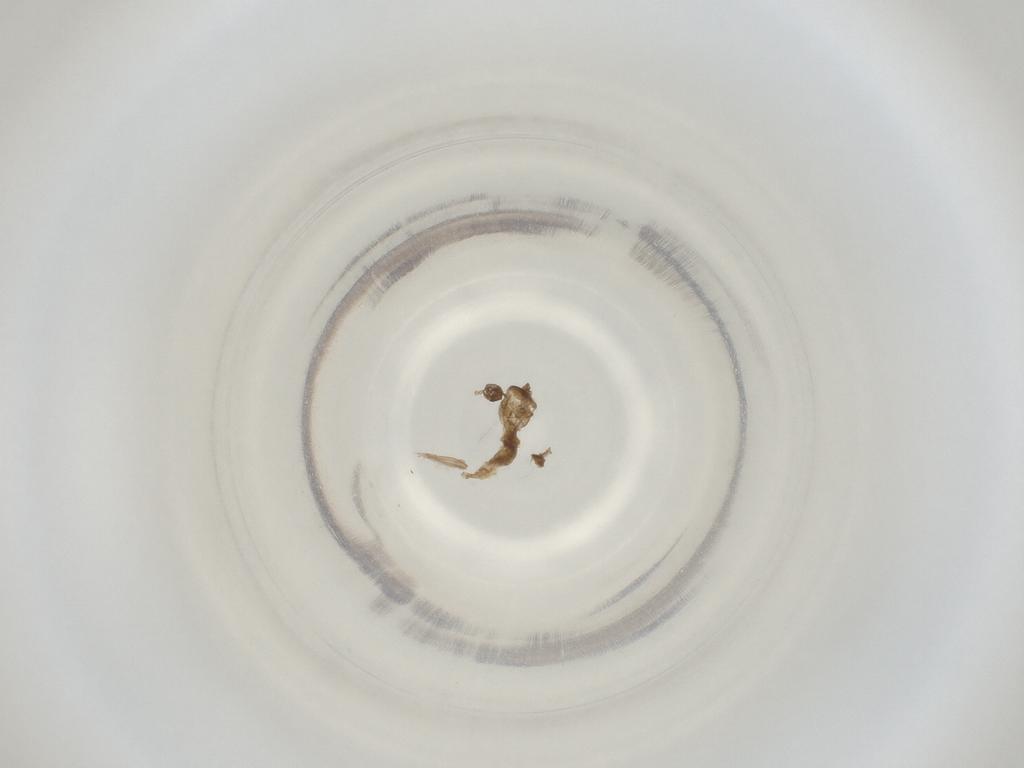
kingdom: Animalia
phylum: Arthropoda
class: Insecta
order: Diptera
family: Cecidomyiidae
